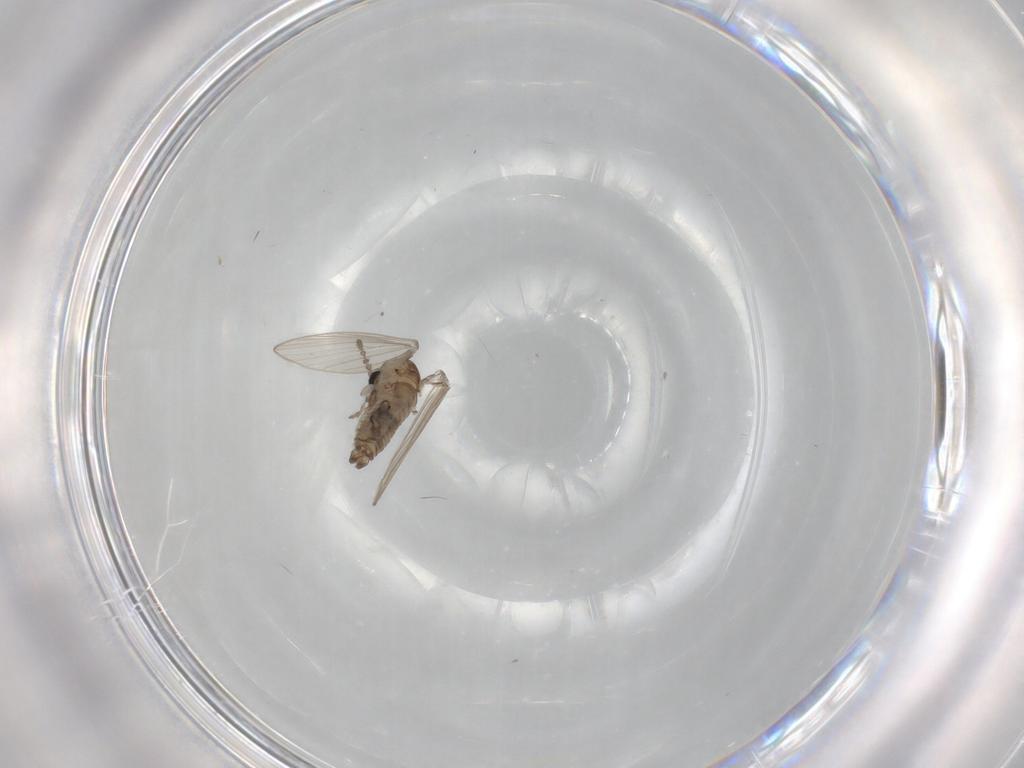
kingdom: Animalia
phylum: Arthropoda
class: Insecta
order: Diptera
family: Psychodidae
